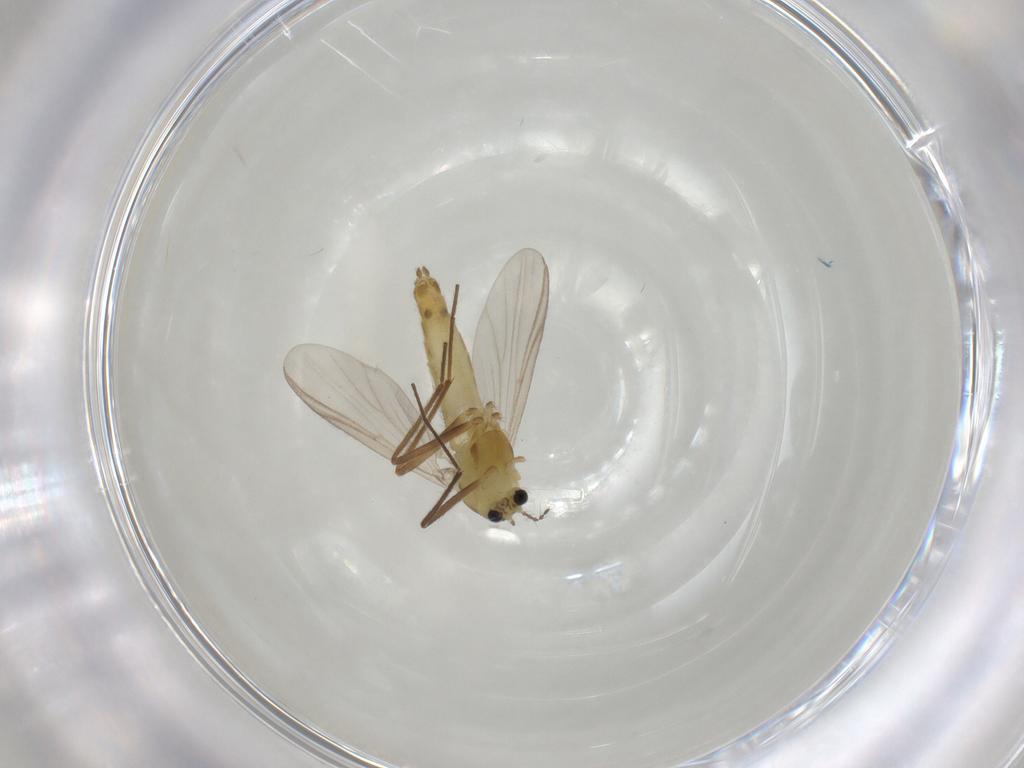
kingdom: Animalia
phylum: Arthropoda
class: Insecta
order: Diptera
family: Chironomidae
